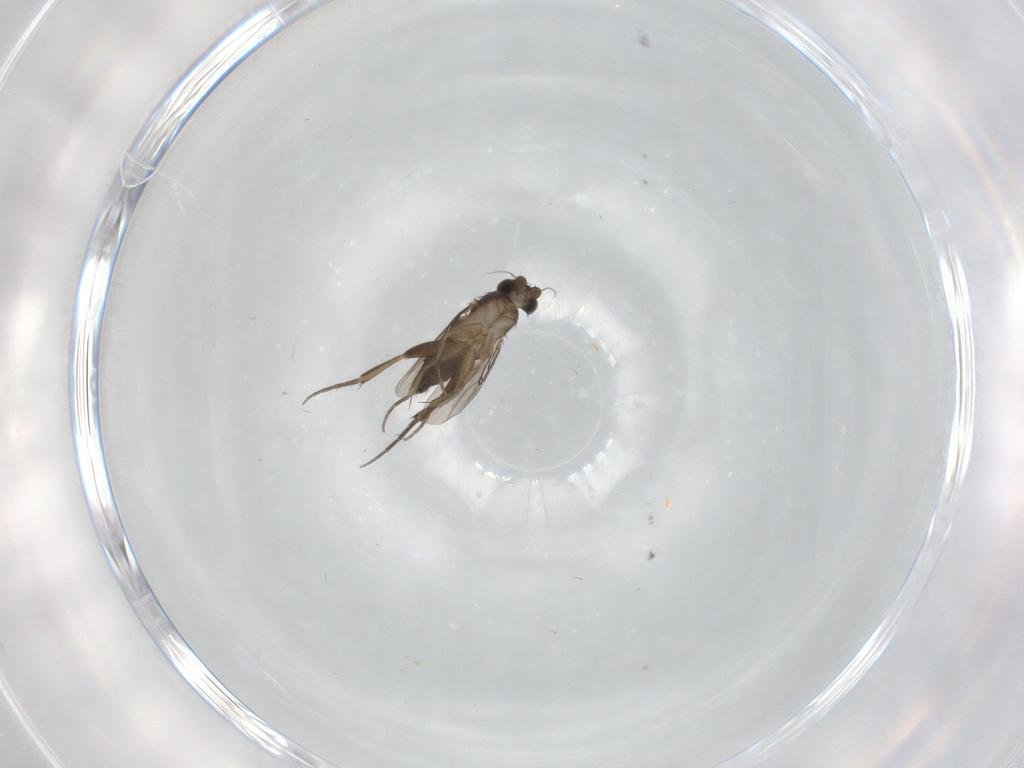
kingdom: Animalia
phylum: Arthropoda
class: Insecta
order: Diptera
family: Phoridae
